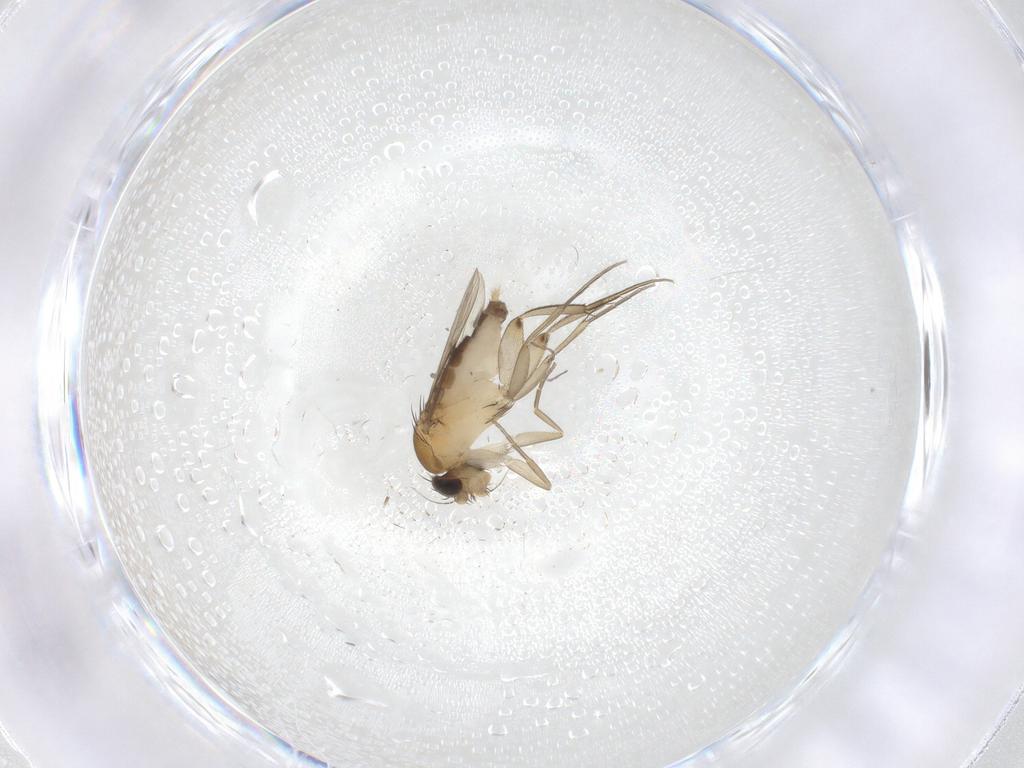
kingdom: Animalia
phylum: Arthropoda
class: Insecta
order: Diptera
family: Phoridae
